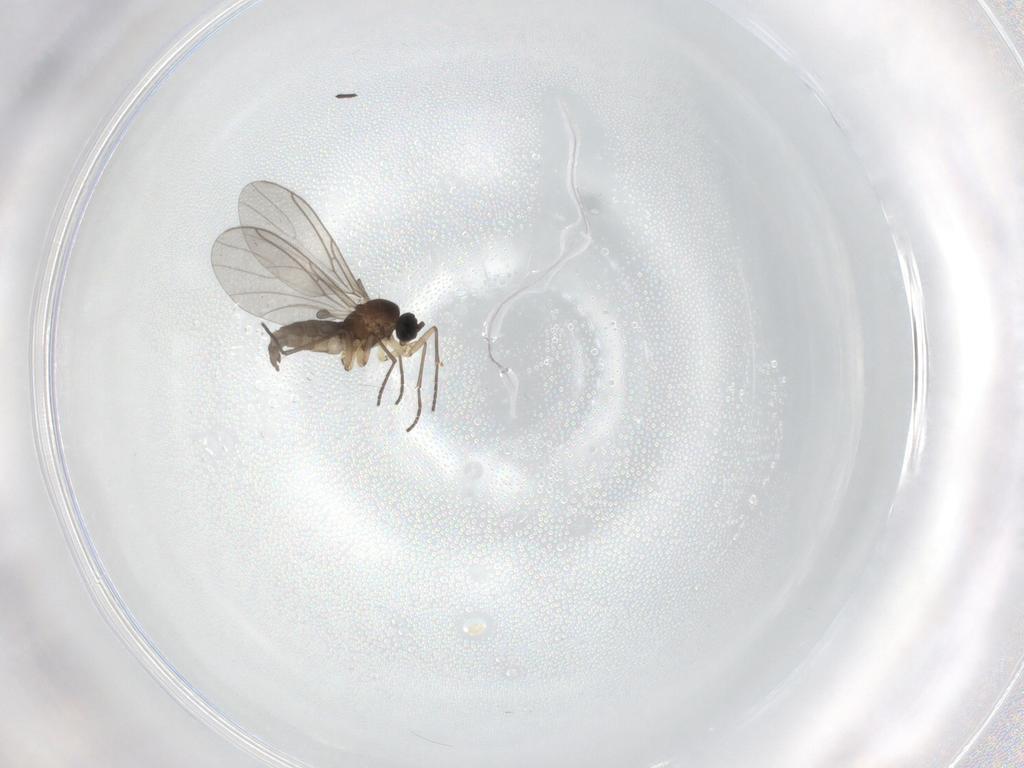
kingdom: Animalia
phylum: Arthropoda
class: Insecta
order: Diptera
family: Sciaridae
